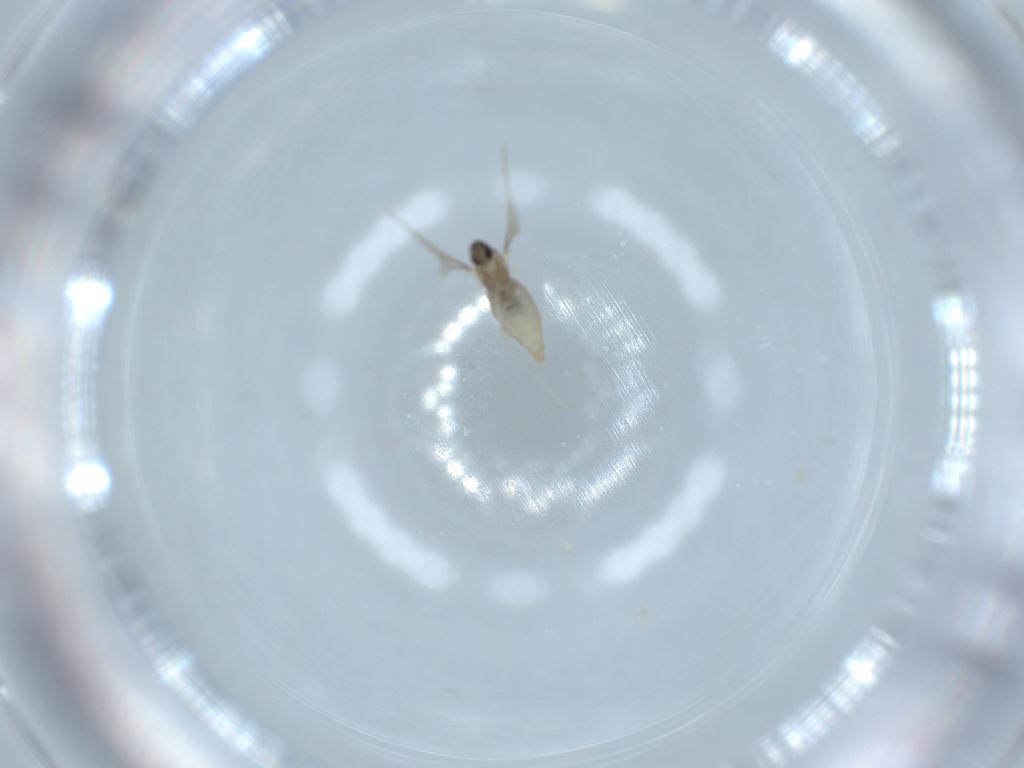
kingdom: Animalia
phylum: Arthropoda
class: Insecta
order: Diptera
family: Cecidomyiidae
